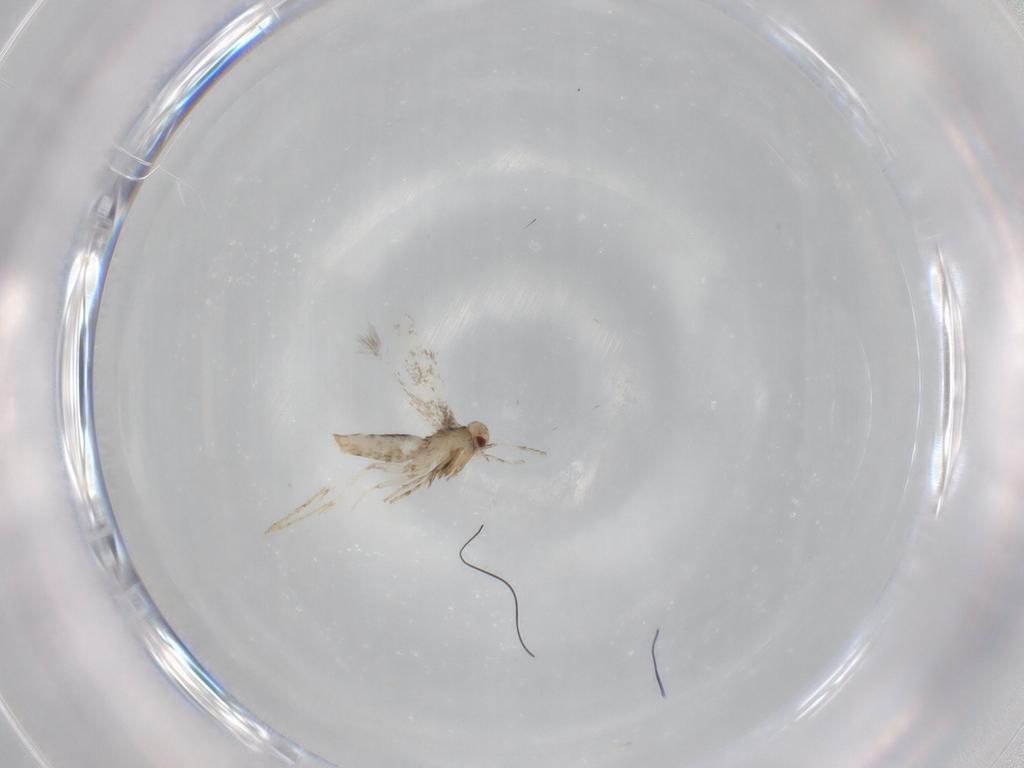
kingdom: Animalia
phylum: Arthropoda
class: Insecta
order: Lepidoptera
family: Gracillariidae
